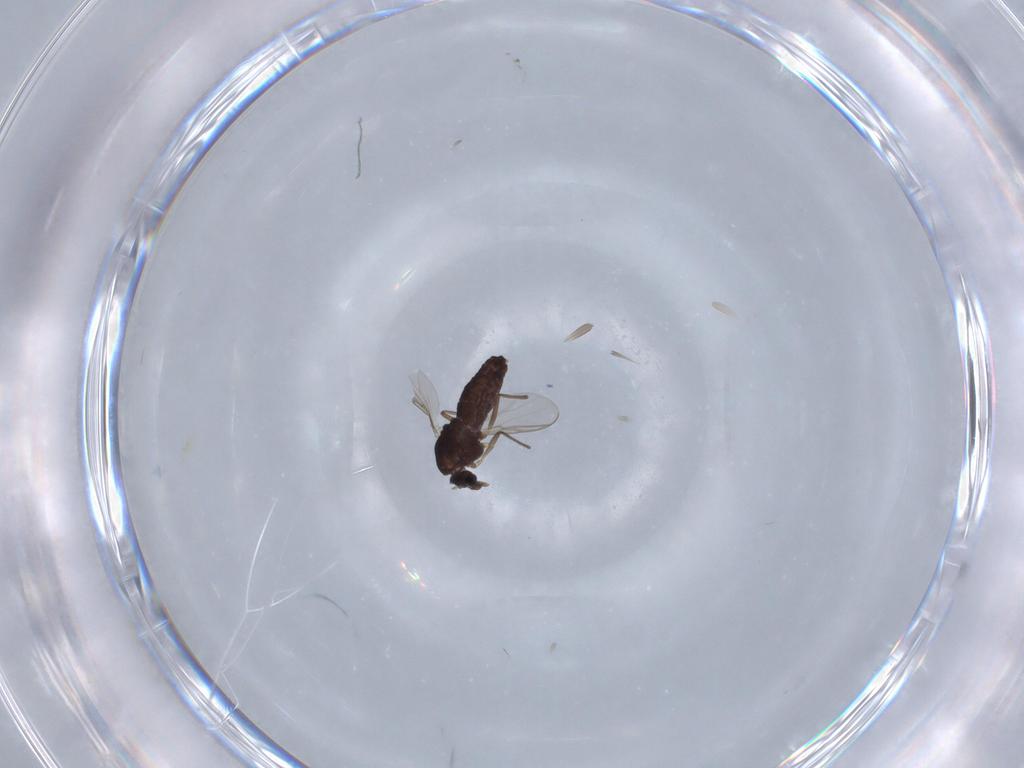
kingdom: Animalia
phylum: Arthropoda
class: Insecta
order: Diptera
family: Chironomidae
